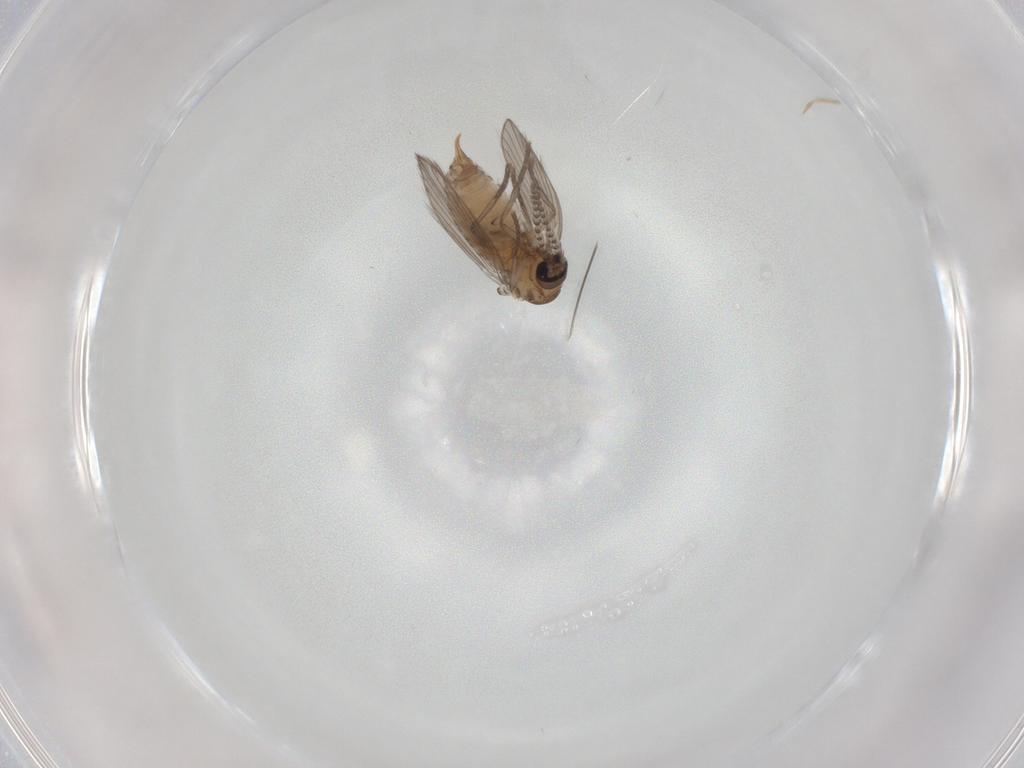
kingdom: Animalia
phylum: Arthropoda
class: Insecta
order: Diptera
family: Psychodidae
